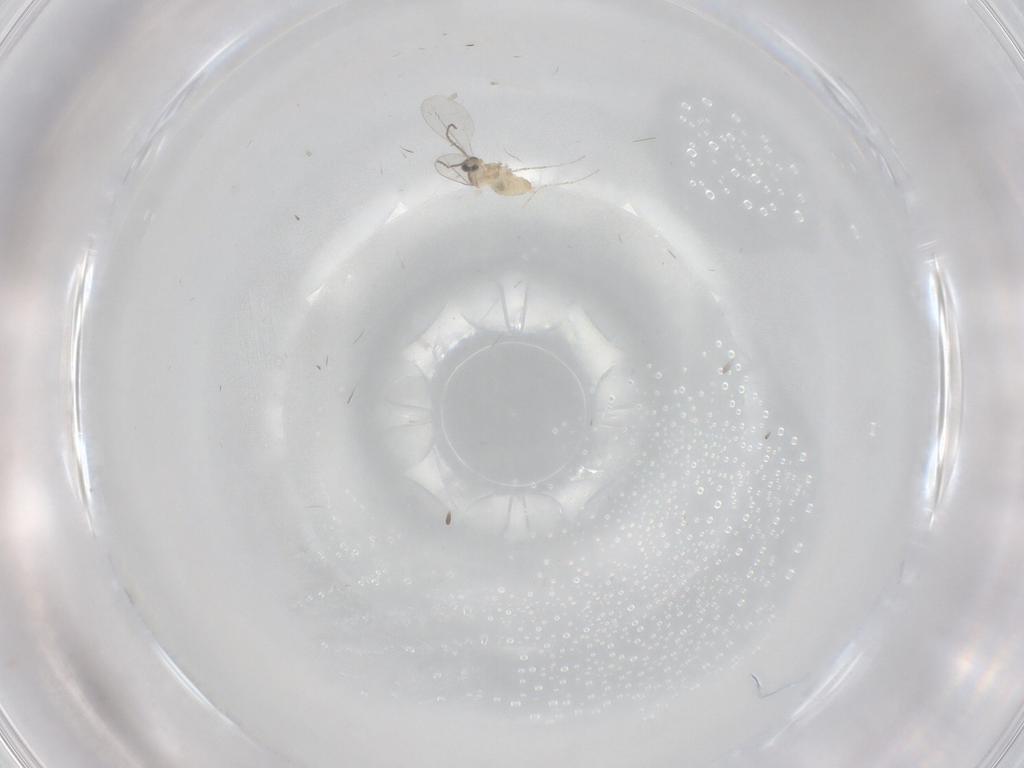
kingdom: Animalia
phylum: Arthropoda
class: Insecta
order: Diptera
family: Cecidomyiidae
